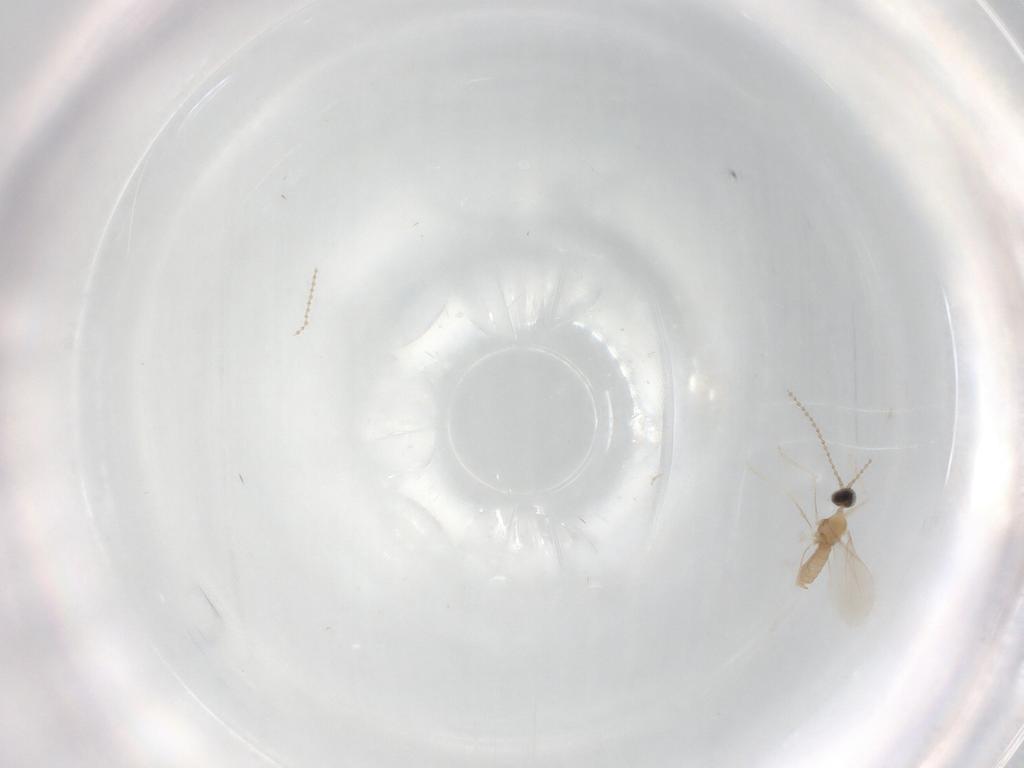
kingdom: Animalia
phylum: Arthropoda
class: Insecta
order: Diptera
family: Cecidomyiidae
